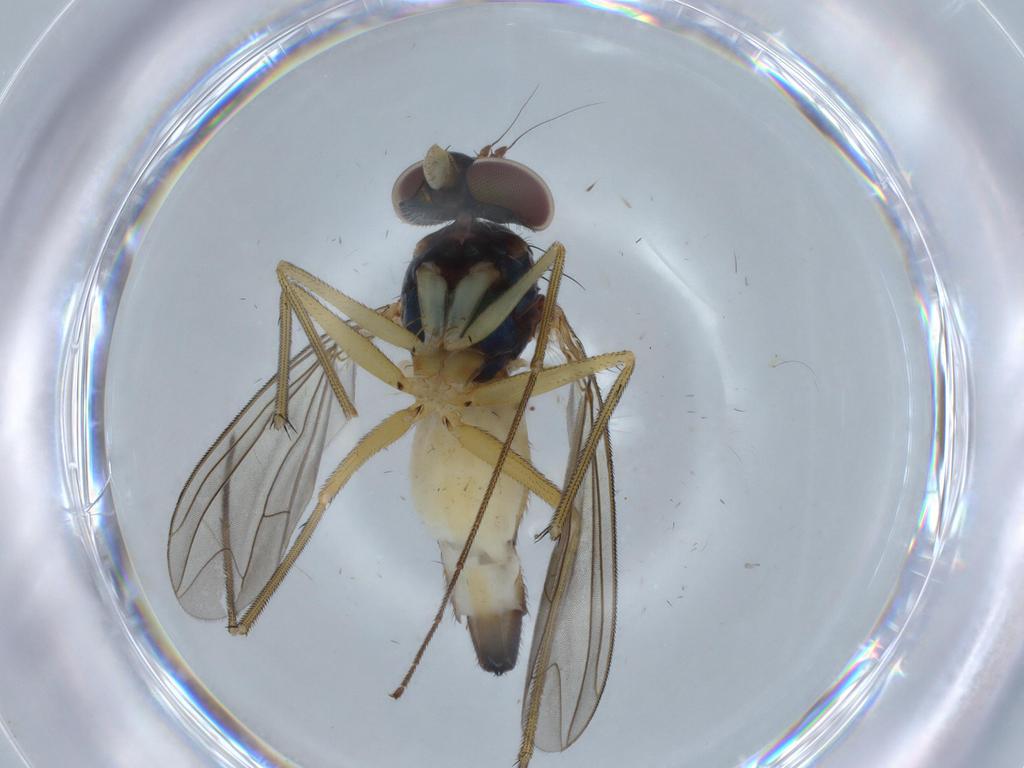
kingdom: Animalia
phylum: Arthropoda
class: Insecta
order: Diptera
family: Dolichopodidae
